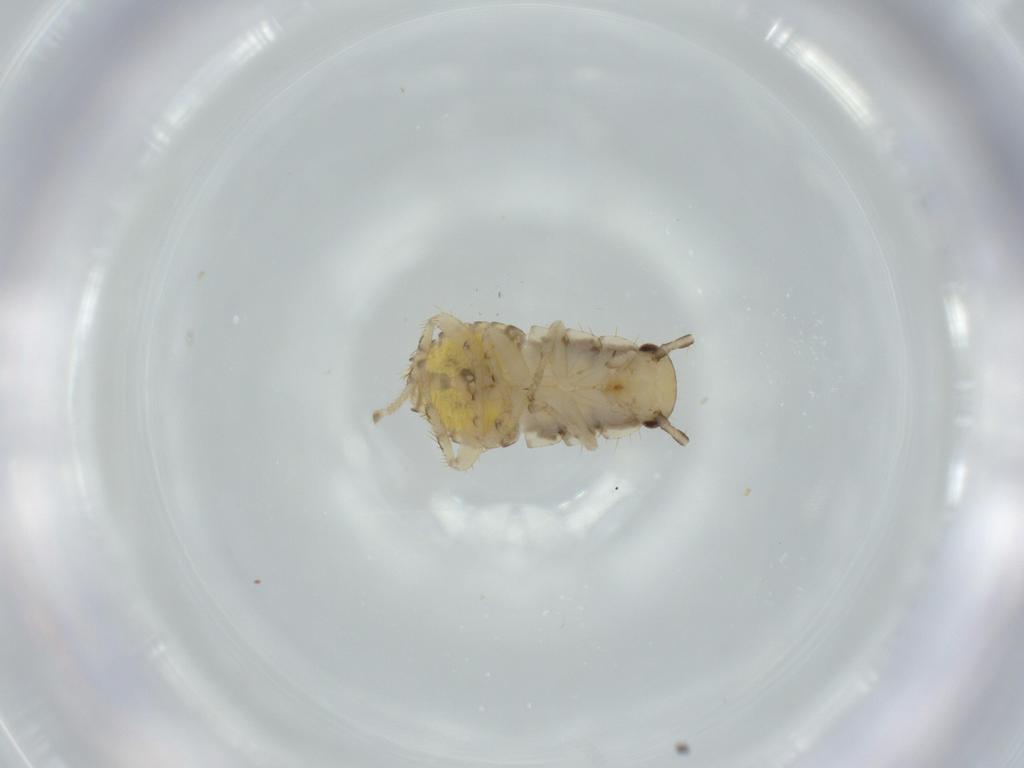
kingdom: Animalia
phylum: Arthropoda
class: Insecta
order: Blattodea
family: Ectobiidae
